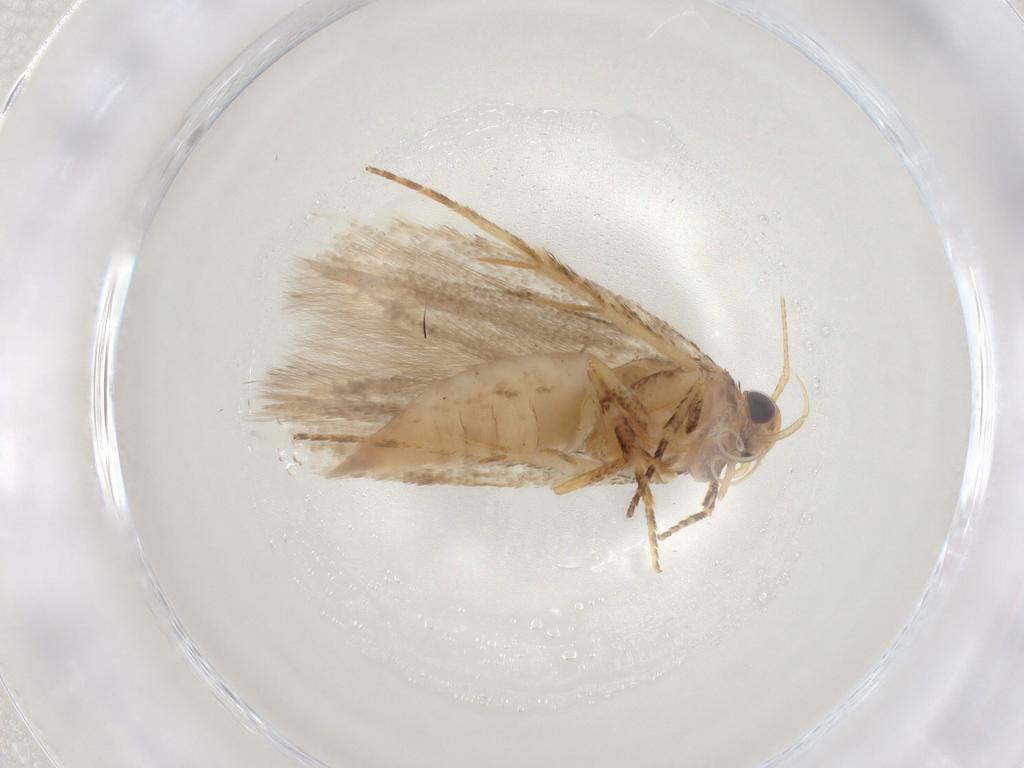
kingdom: Animalia
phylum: Arthropoda
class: Insecta
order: Lepidoptera
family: Gelechiidae
